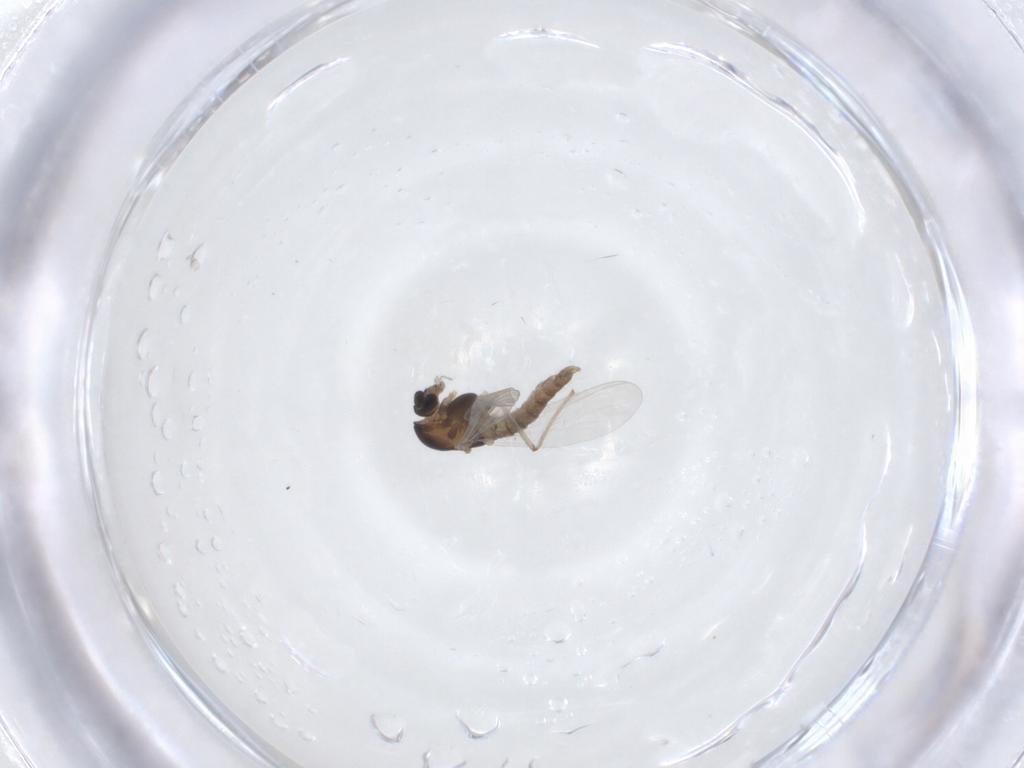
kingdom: Animalia
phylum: Arthropoda
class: Insecta
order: Diptera
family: Chironomidae
